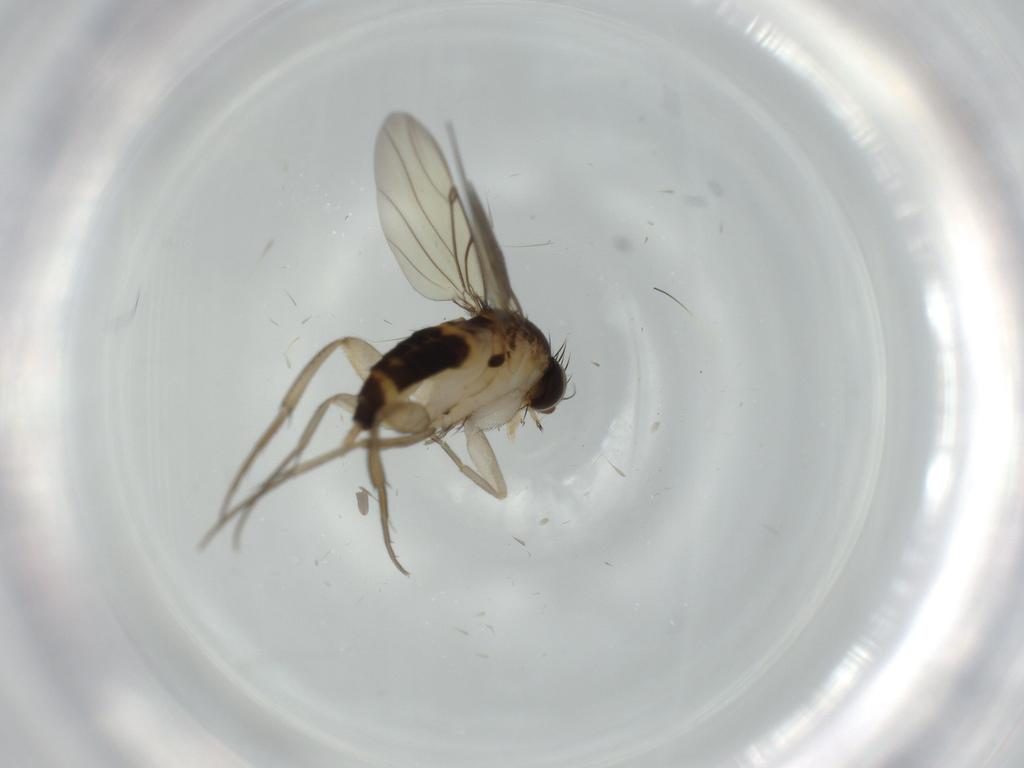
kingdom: Animalia
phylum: Arthropoda
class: Insecta
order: Diptera
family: Phoridae
